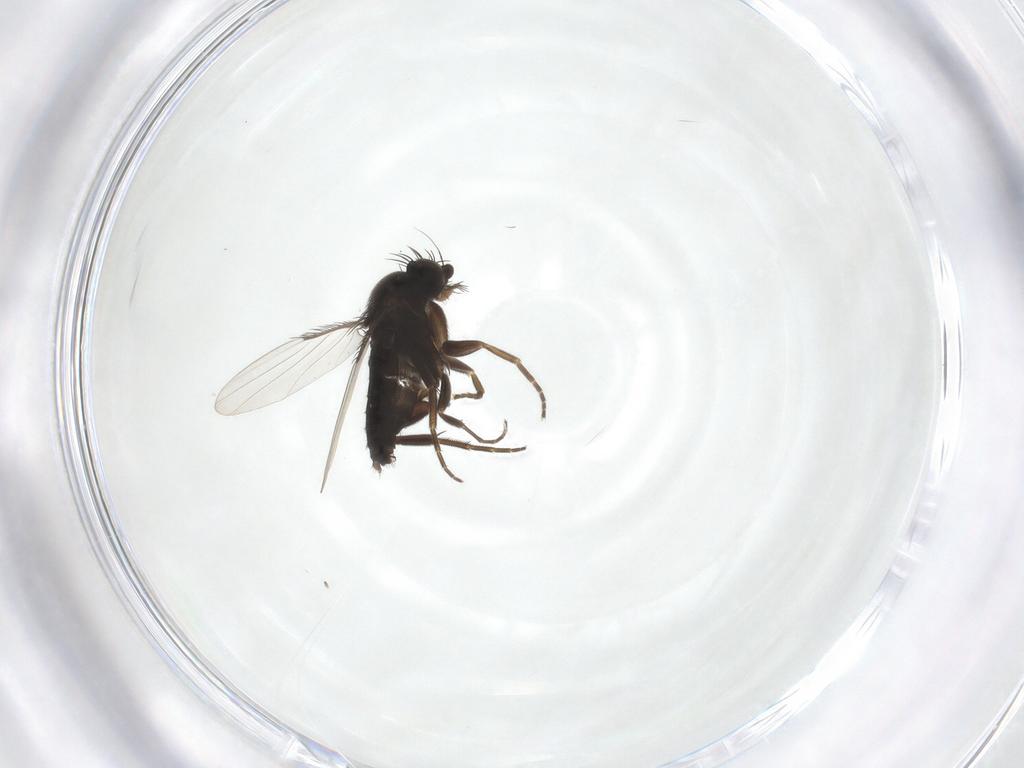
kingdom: Animalia
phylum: Arthropoda
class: Insecta
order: Diptera
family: Phoridae
